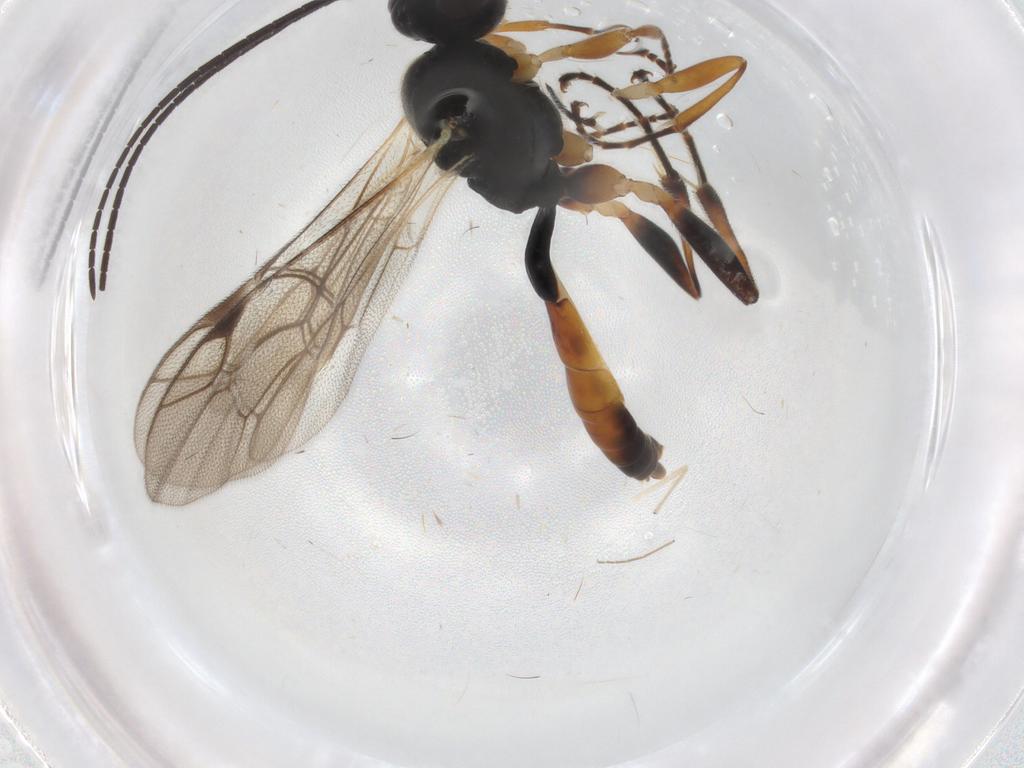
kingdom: Animalia
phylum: Arthropoda
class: Insecta
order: Hymenoptera
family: Ichneumonidae
